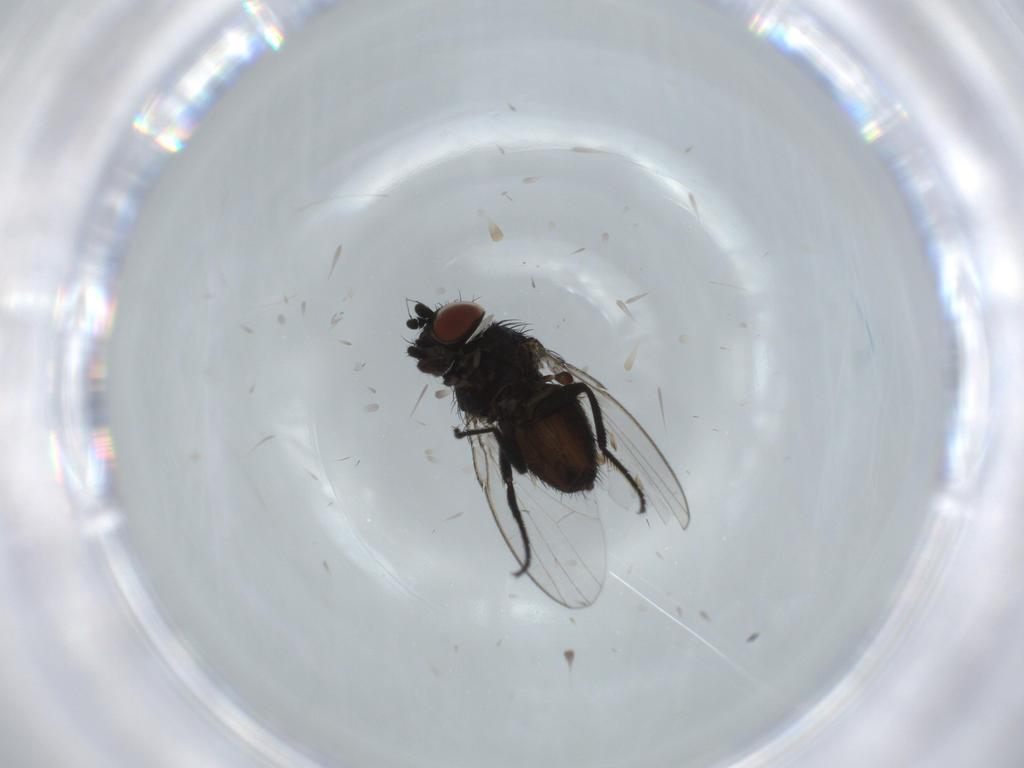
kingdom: Animalia
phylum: Arthropoda
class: Insecta
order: Diptera
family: Milichiidae
